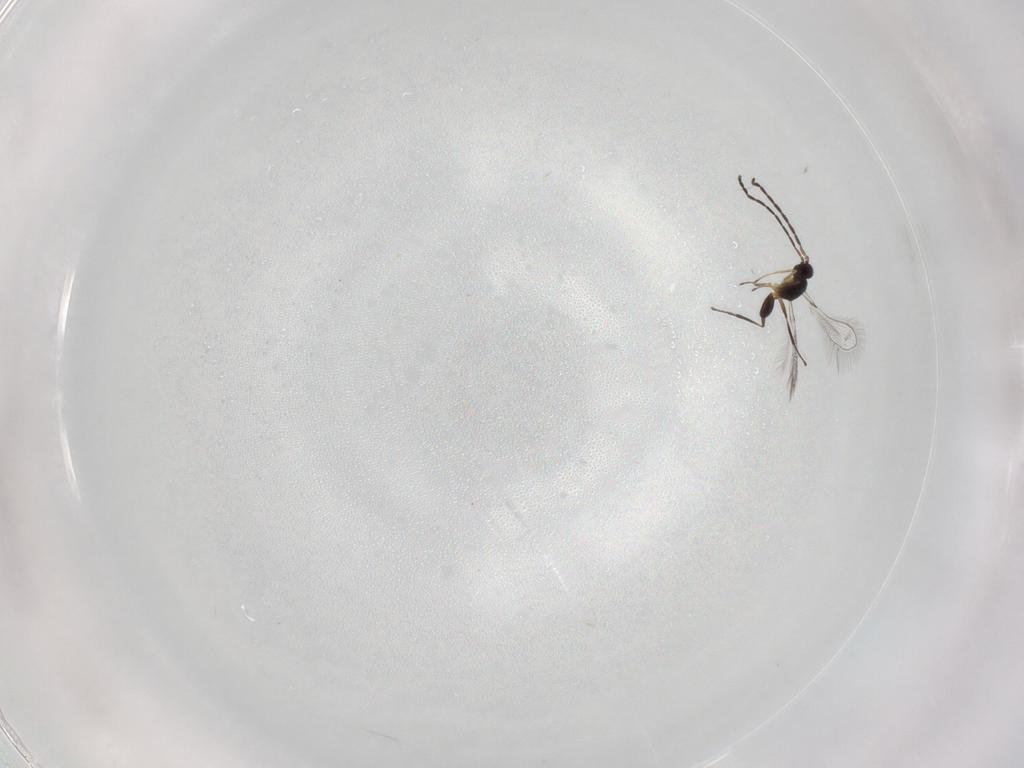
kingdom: Animalia
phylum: Arthropoda
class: Insecta
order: Hymenoptera
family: Mymaridae
